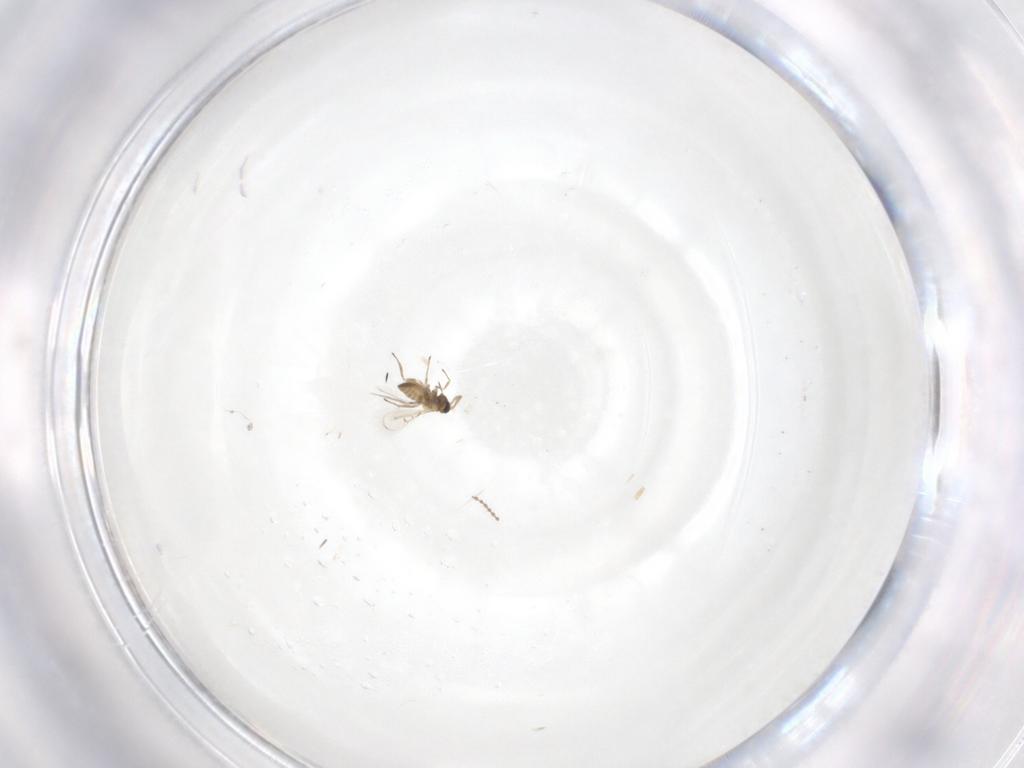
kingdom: Animalia
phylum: Arthropoda
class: Insecta
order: Hymenoptera
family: Trichogrammatidae
